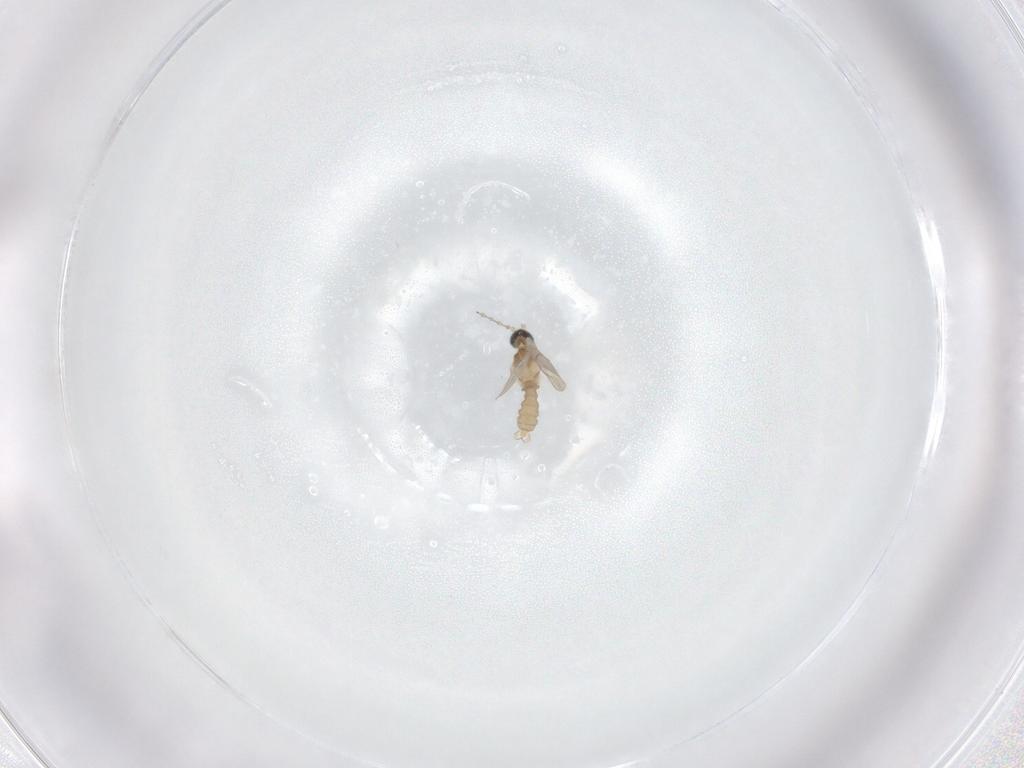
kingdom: Animalia
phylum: Arthropoda
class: Insecta
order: Diptera
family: Cecidomyiidae
